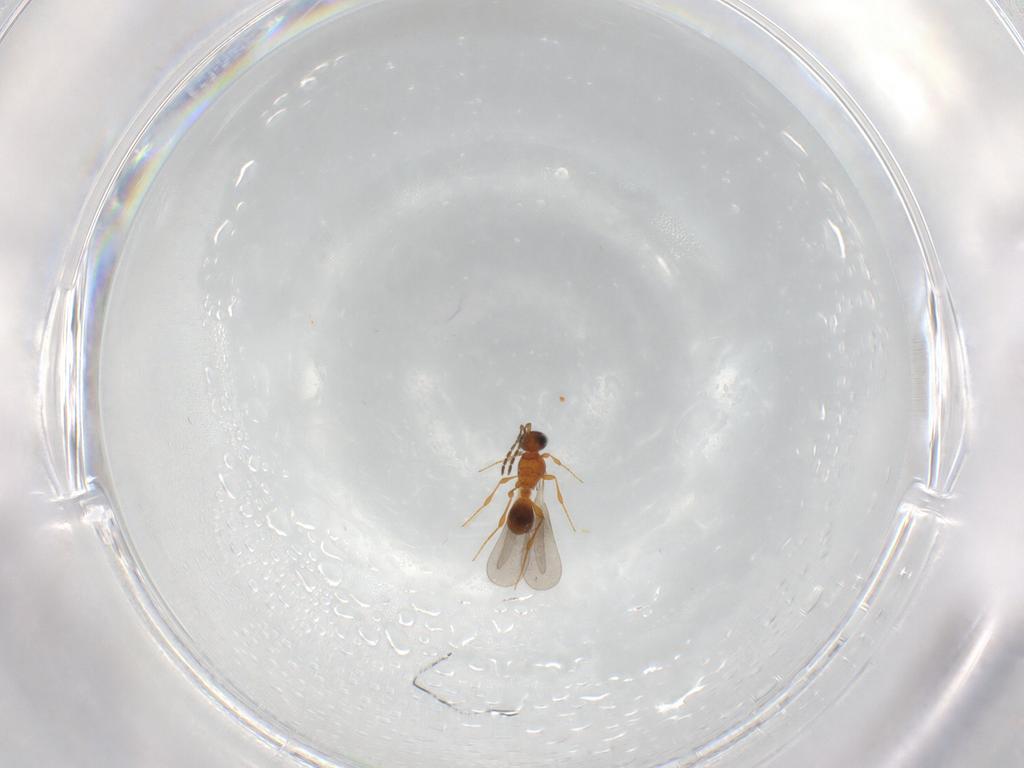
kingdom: Animalia
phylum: Arthropoda
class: Insecta
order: Hymenoptera
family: Platygastridae
